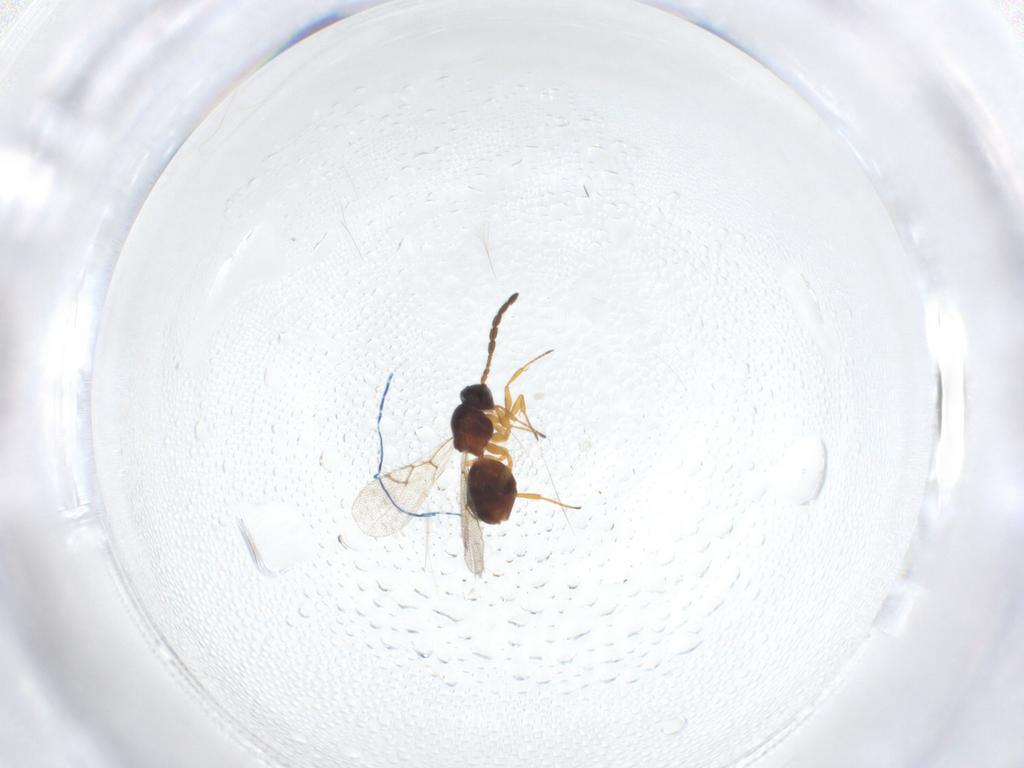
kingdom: Animalia
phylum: Arthropoda
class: Insecta
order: Hymenoptera
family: Figitidae
